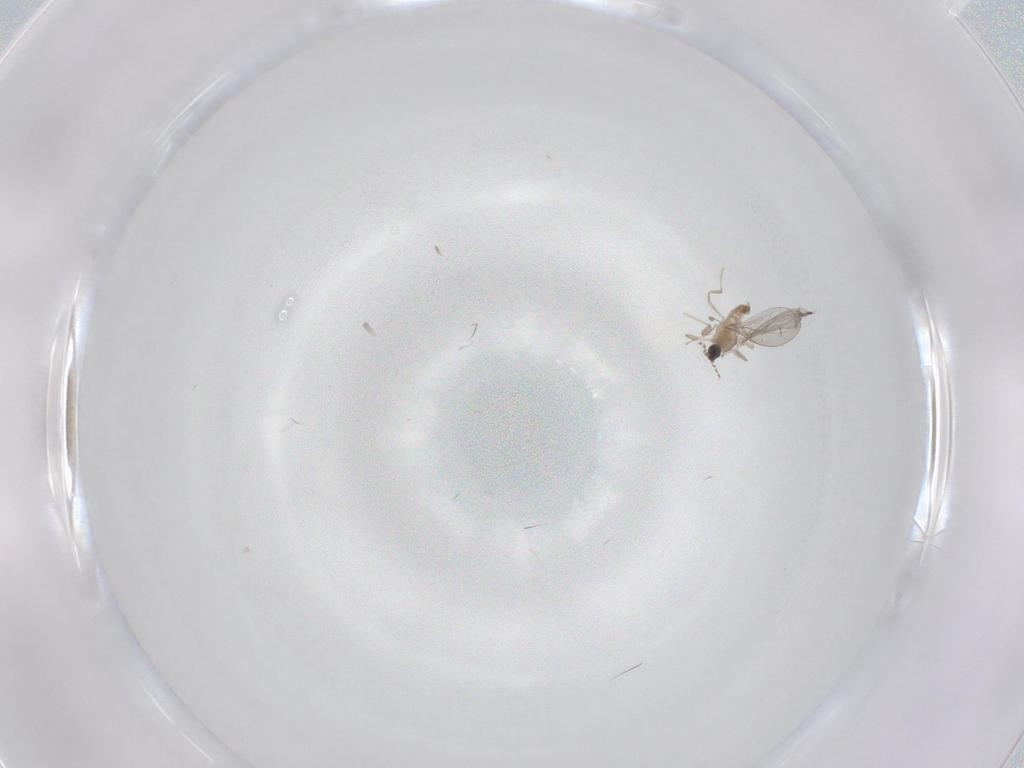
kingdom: Animalia
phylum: Arthropoda
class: Insecta
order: Diptera
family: Cecidomyiidae
